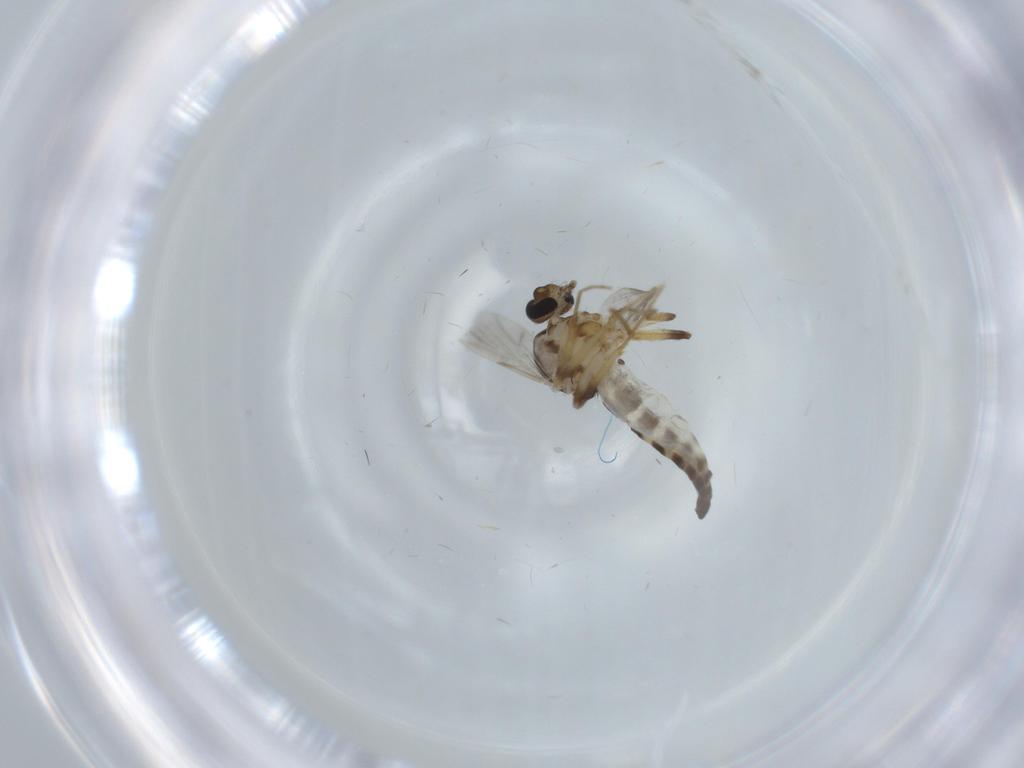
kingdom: Animalia
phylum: Arthropoda
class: Insecta
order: Diptera
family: Ceratopogonidae
